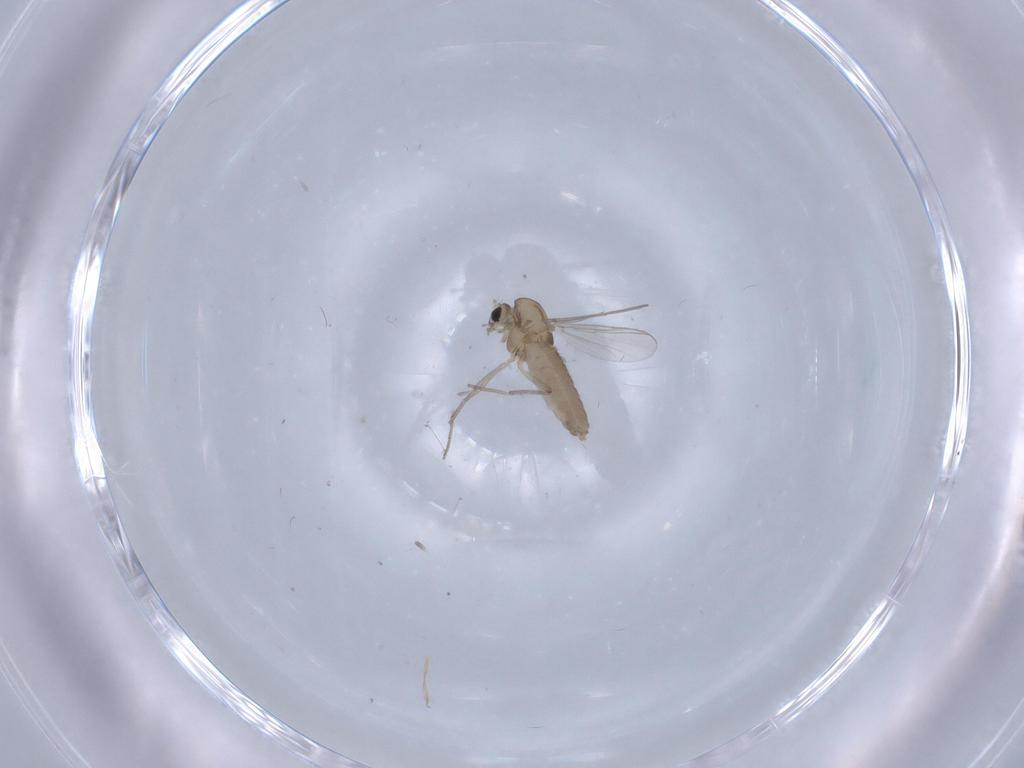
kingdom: Animalia
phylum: Arthropoda
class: Insecta
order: Diptera
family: Chironomidae
